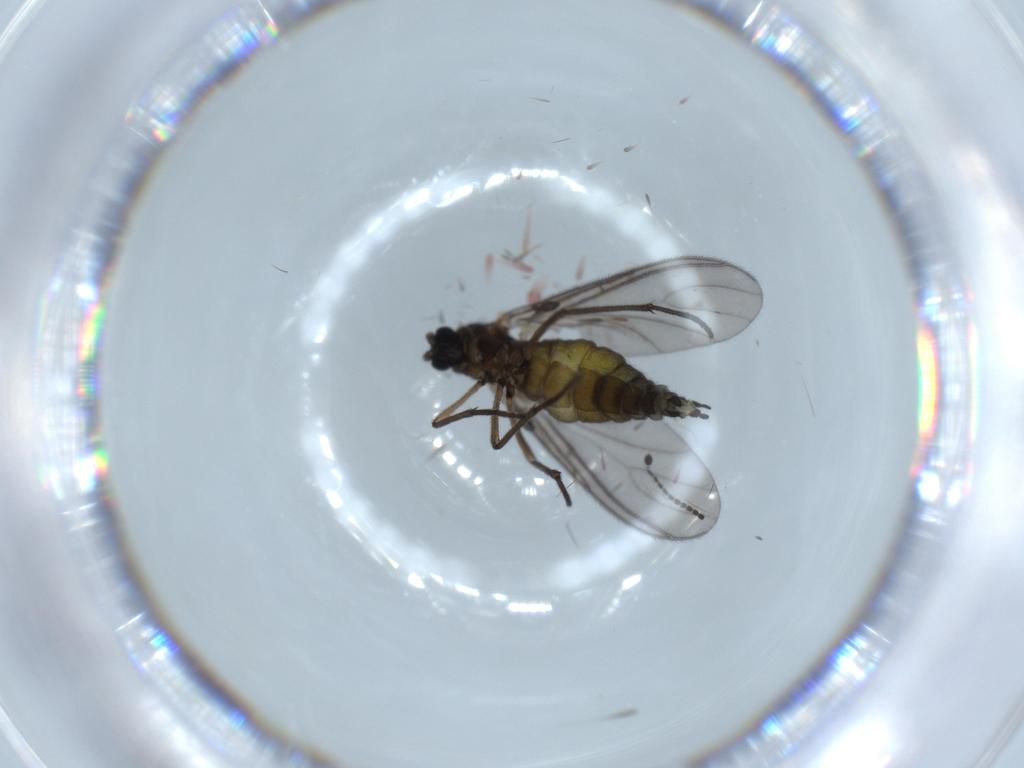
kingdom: Animalia
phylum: Arthropoda
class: Insecta
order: Diptera
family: Sciaridae
